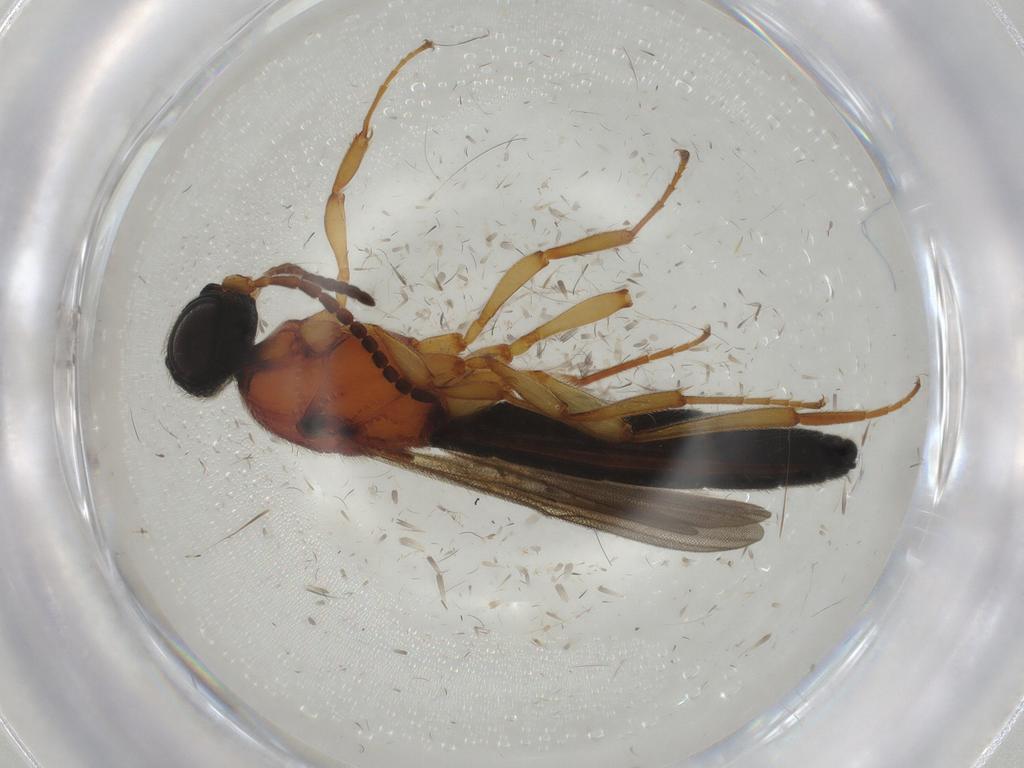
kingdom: Animalia
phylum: Arthropoda
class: Insecta
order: Hymenoptera
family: Scelionidae
